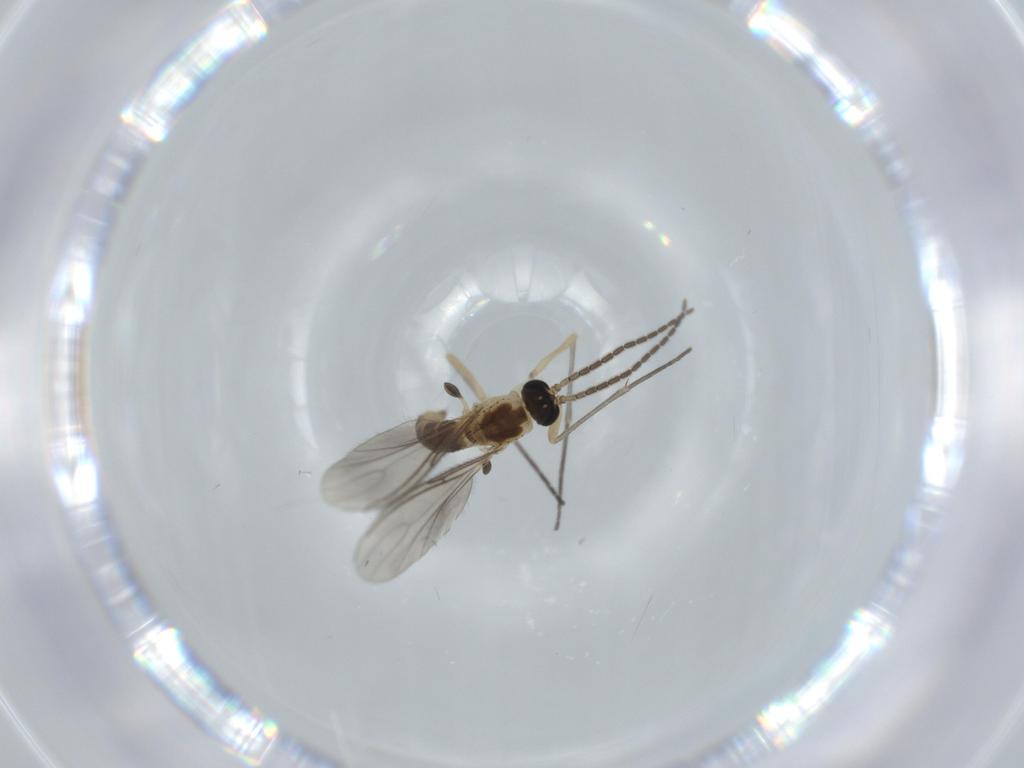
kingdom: Animalia
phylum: Arthropoda
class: Insecta
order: Diptera
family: Sciaridae
